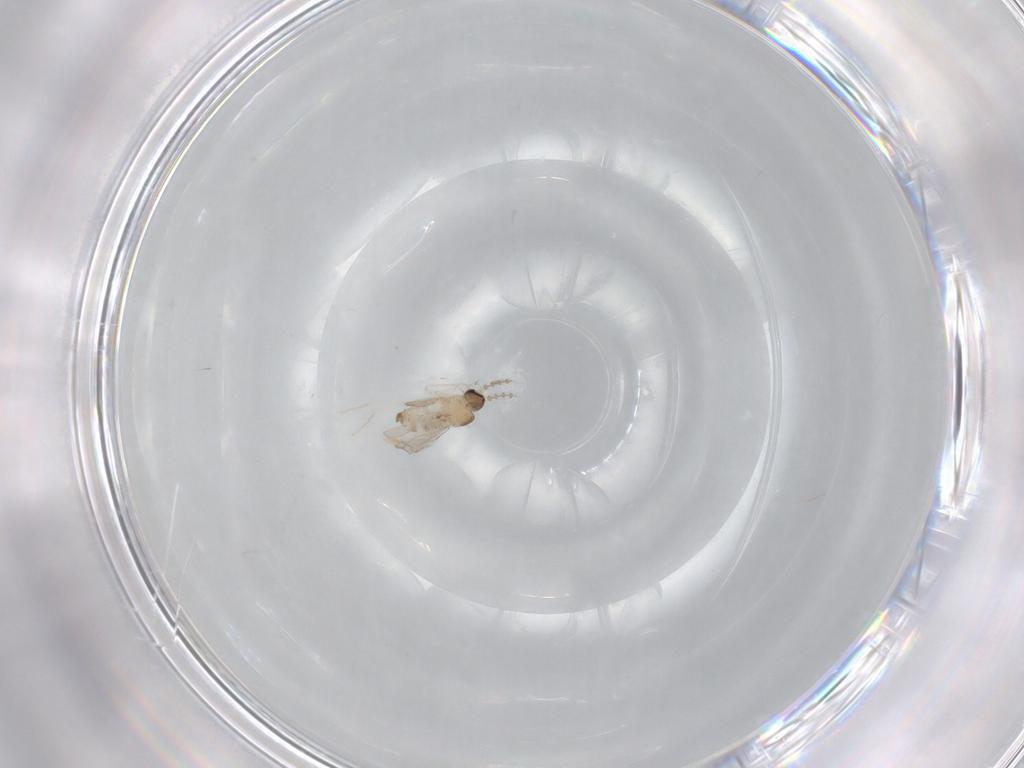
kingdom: Animalia
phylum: Arthropoda
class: Insecta
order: Diptera
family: Cecidomyiidae
